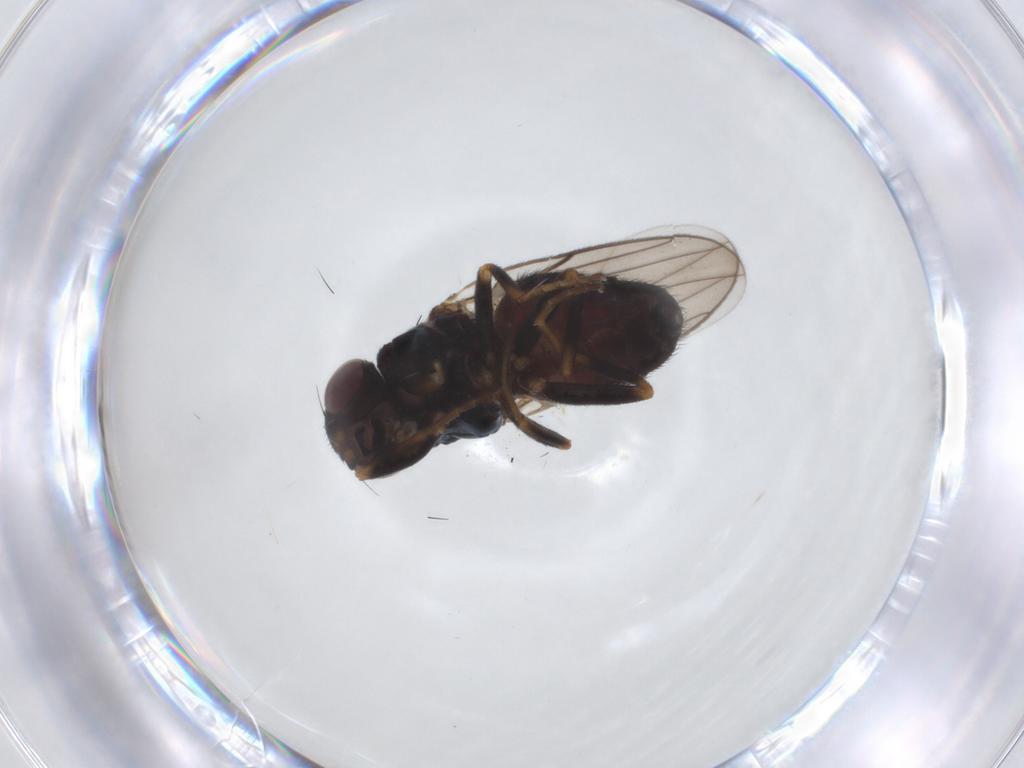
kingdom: Animalia
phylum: Arthropoda
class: Insecta
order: Diptera
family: Chloropidae
